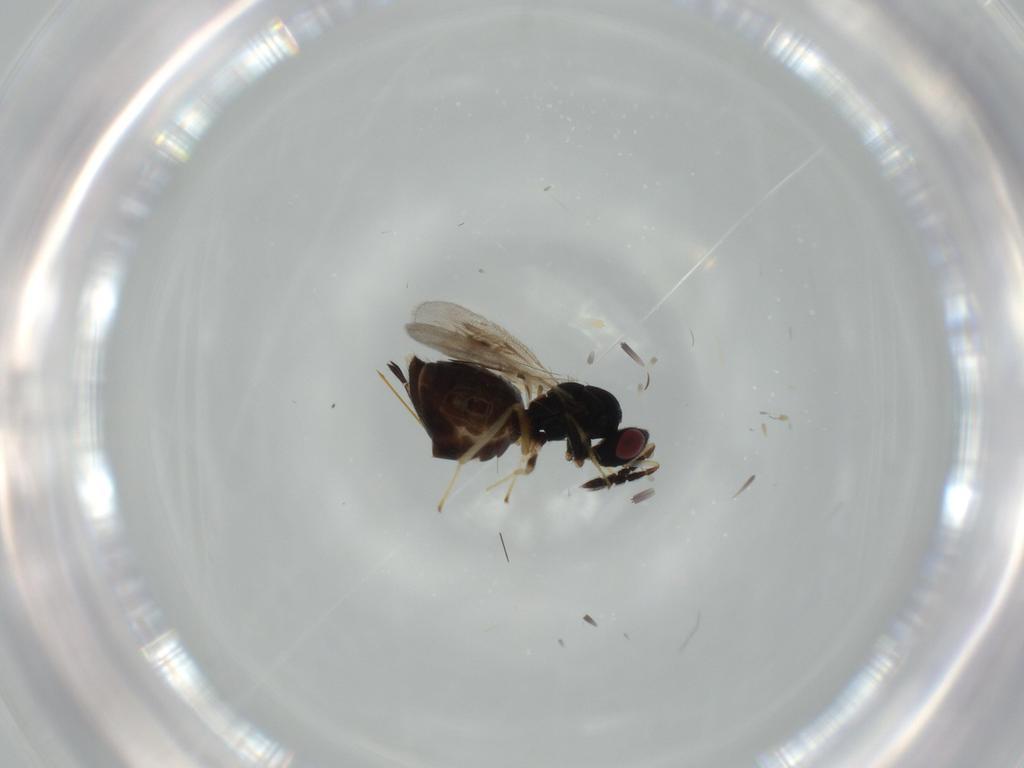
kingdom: Animalia
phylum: Arthropoda
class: Insecta
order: Hymenoptera
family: Eulophidae
